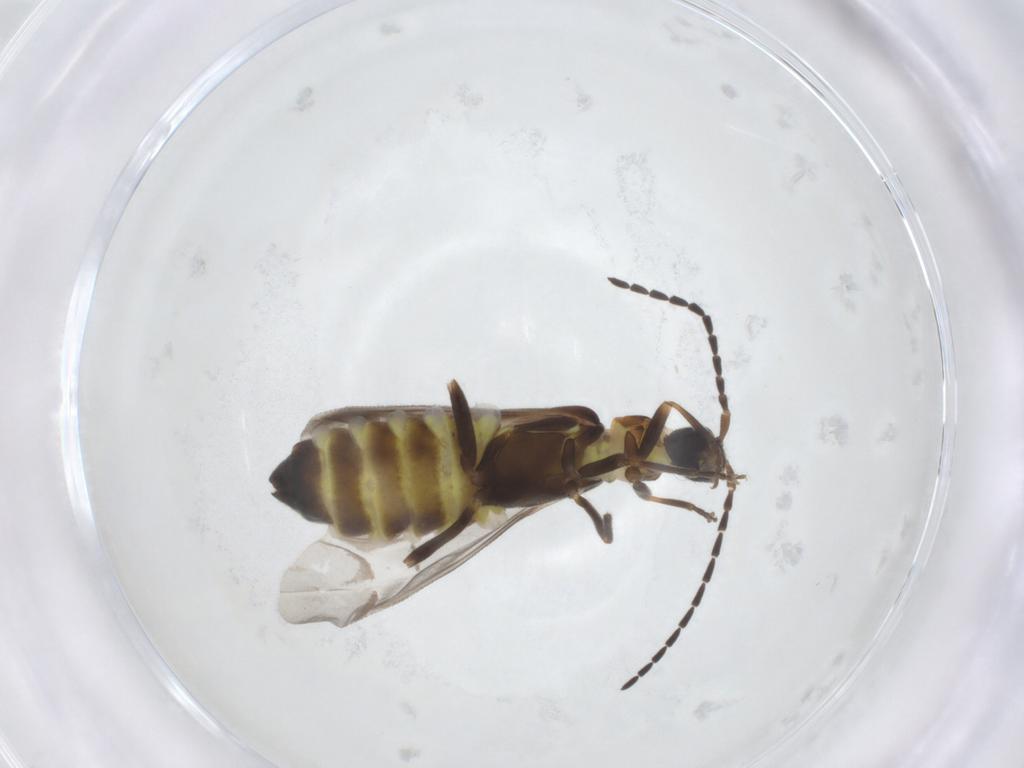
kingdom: Animalia
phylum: Arthropoda
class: Insecta
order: Coleoptera
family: Cantharidae
